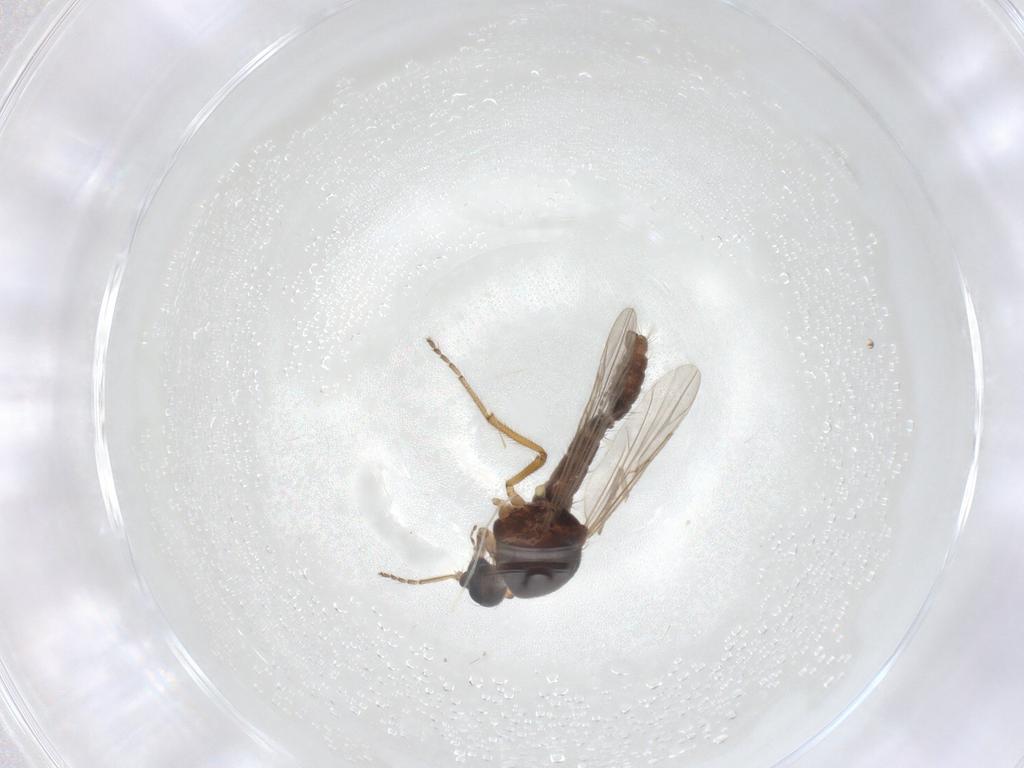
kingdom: Animalia
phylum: Arthropoda
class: Insecta
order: Diptera
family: Ceratopogonidae
